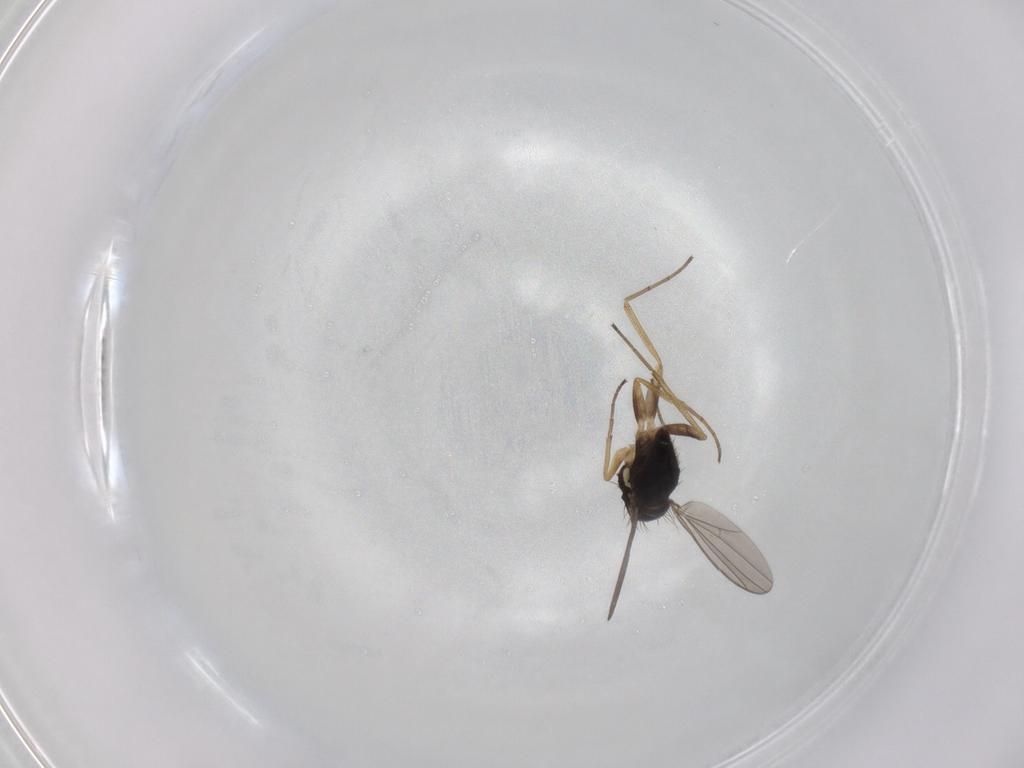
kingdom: Animalia
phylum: Arthropoda
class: Insecta
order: Diptera
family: Dolichopodidae
